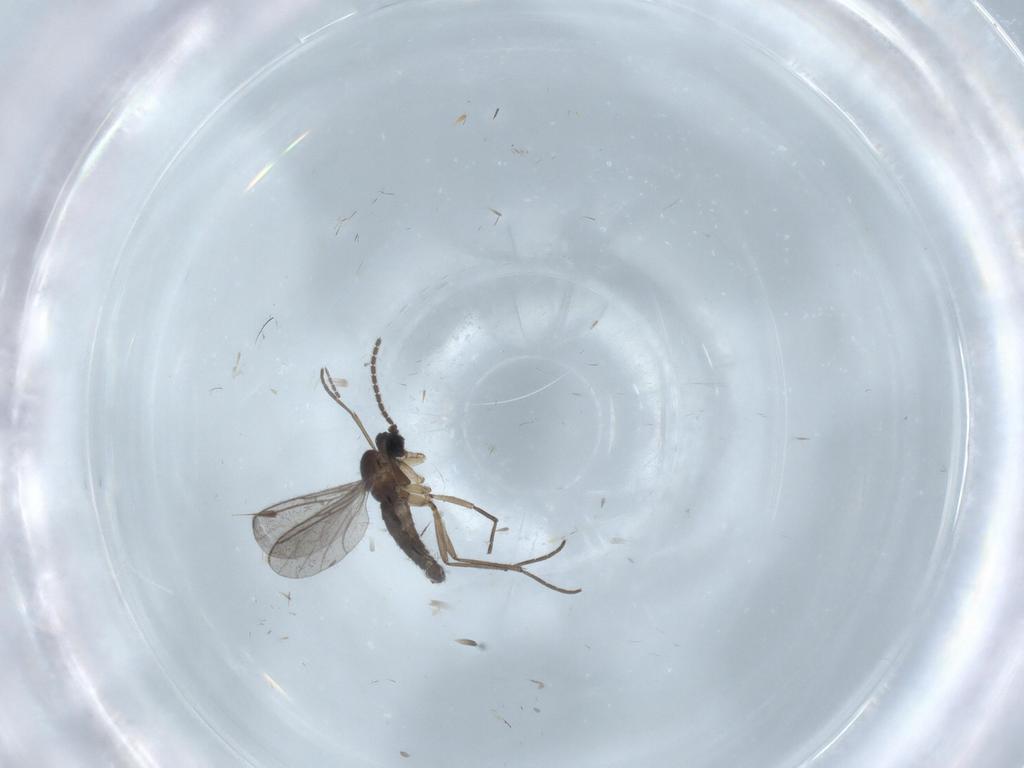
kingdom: Animalia
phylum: Arthropoda
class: Insecta
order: Diptera
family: Sciaridae
